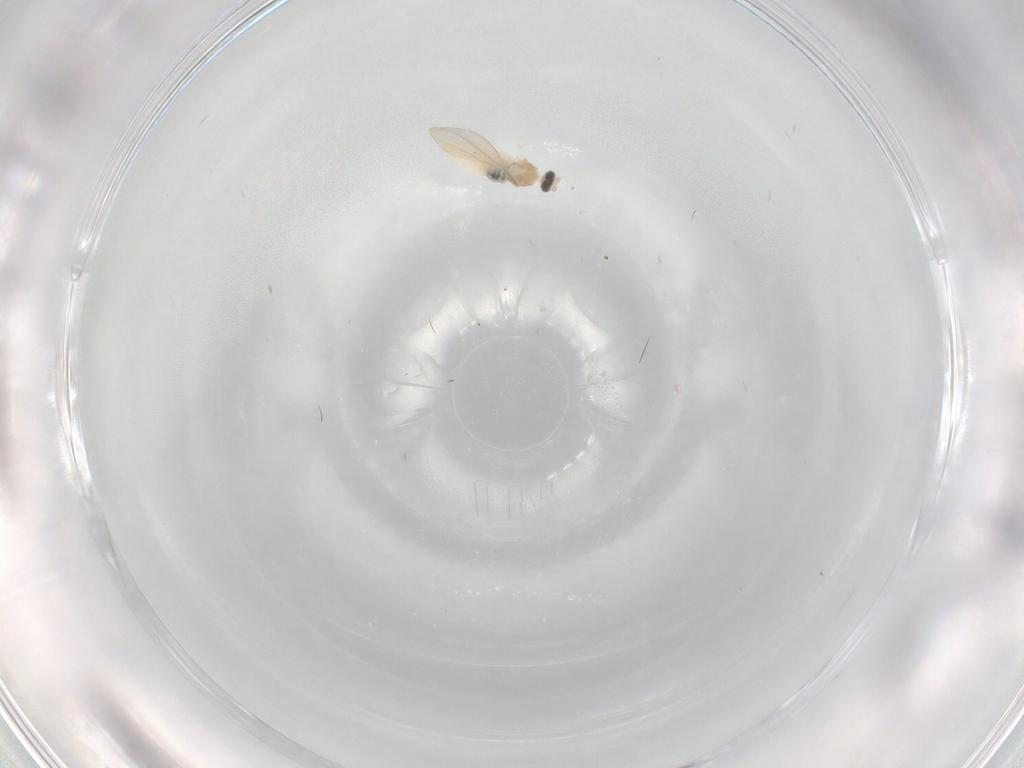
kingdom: Animalia
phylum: Arthropoda
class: Insecta
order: Diptera
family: Cecidomyiidae
